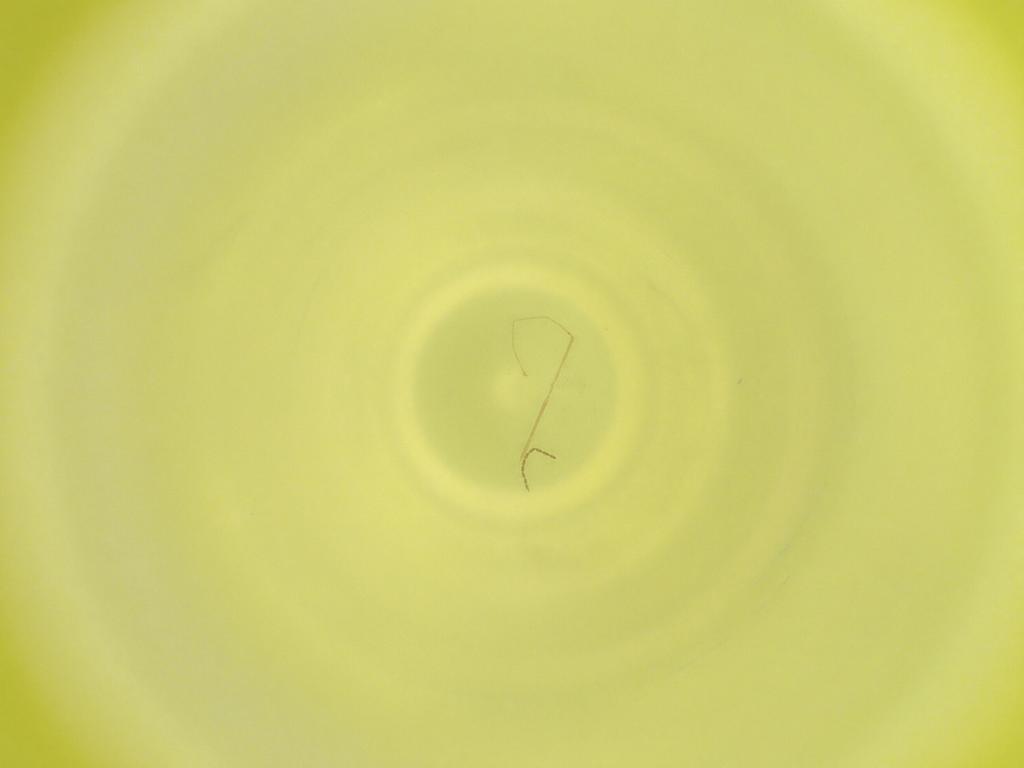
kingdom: Animalia
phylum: Arthropoda
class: Insecta
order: Diptera
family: Cecidomyiidae
